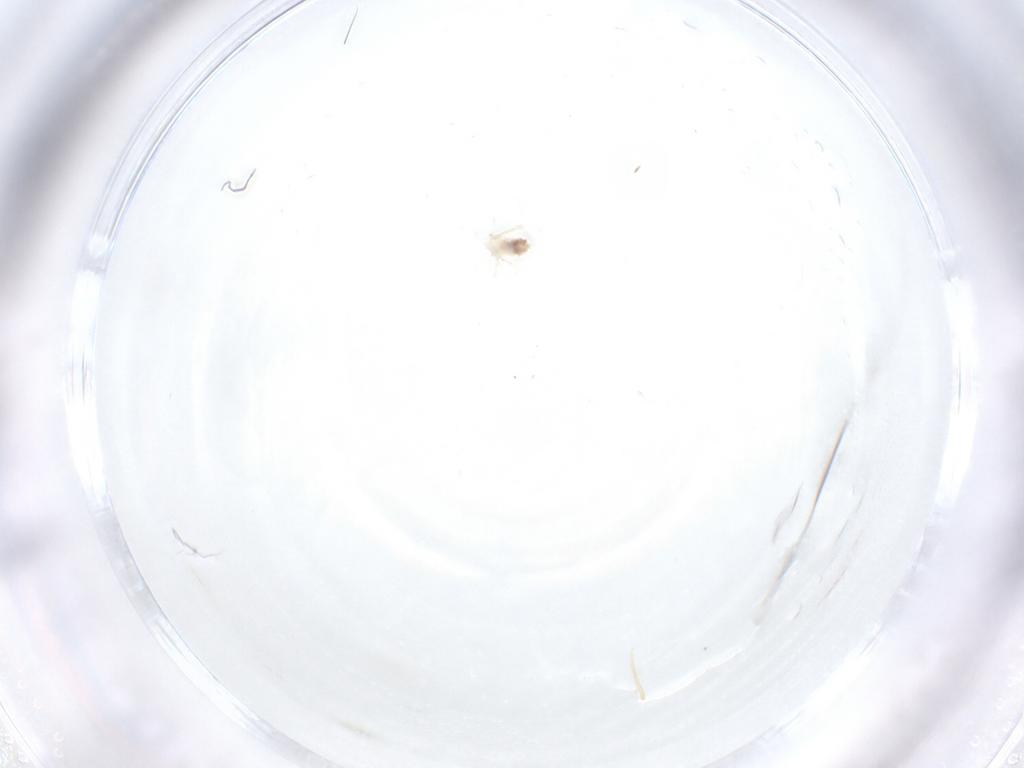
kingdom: Animalia
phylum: Arthropoda
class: Arachnida
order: Trombidiformes
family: Anystidae
